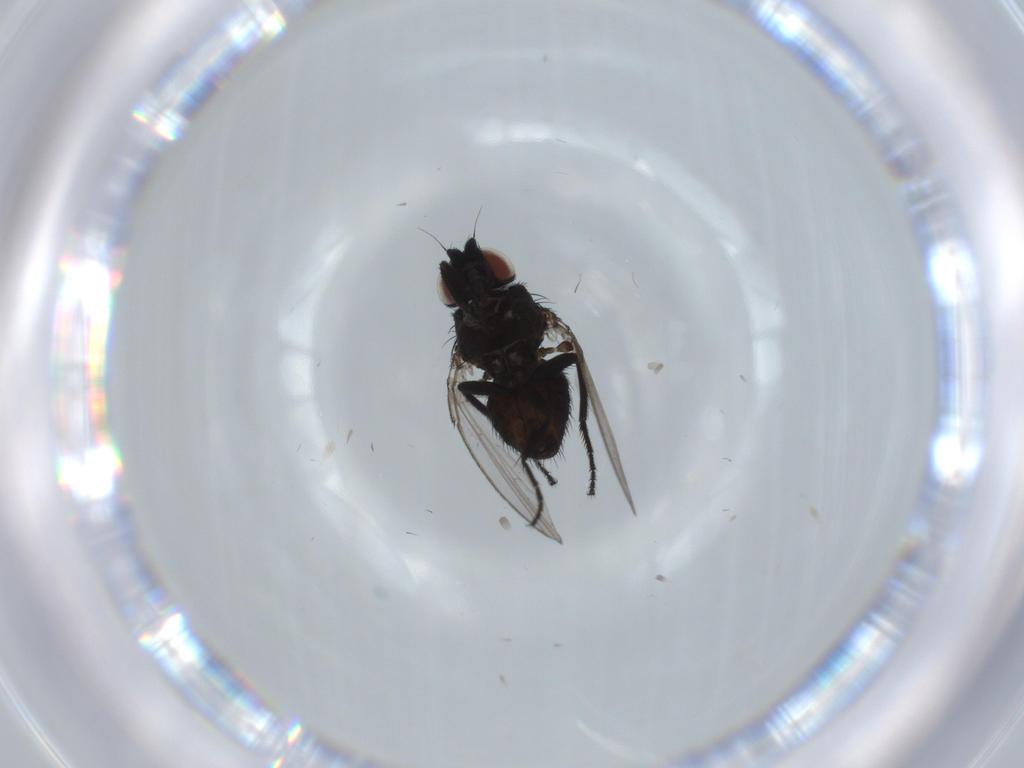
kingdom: Animalia
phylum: Arthropoda
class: Insecta
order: Diptera
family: Milichiidae
